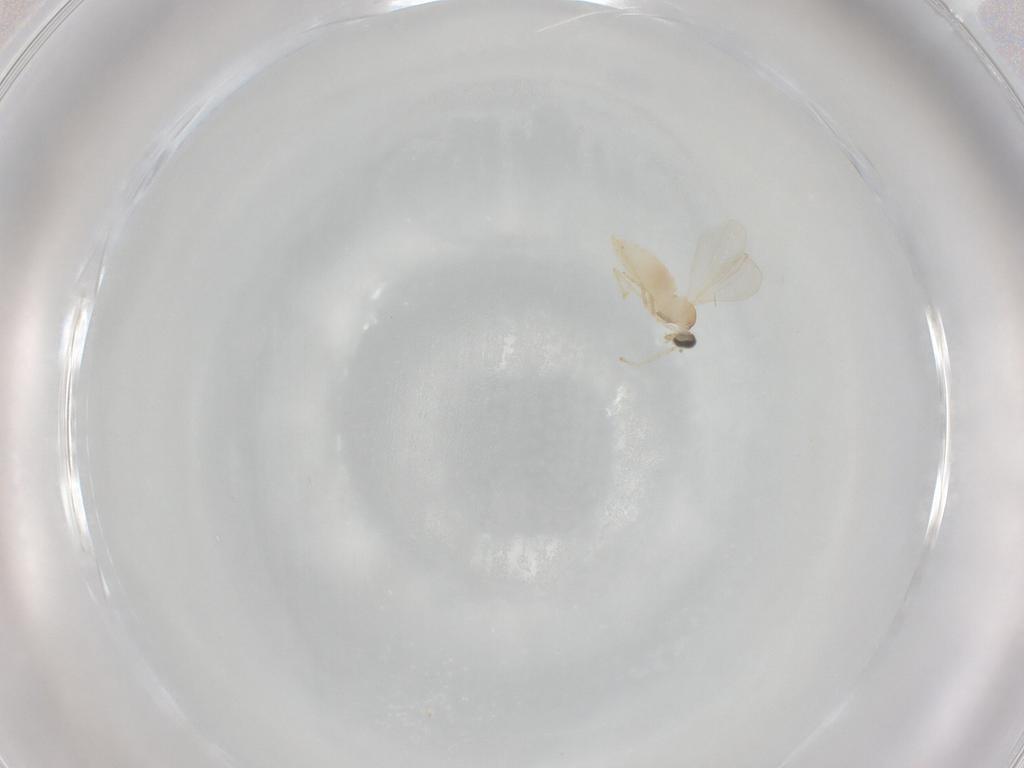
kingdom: Animalia
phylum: Arthropoda
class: Insecta
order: Diptera
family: Cecidomyiidae
